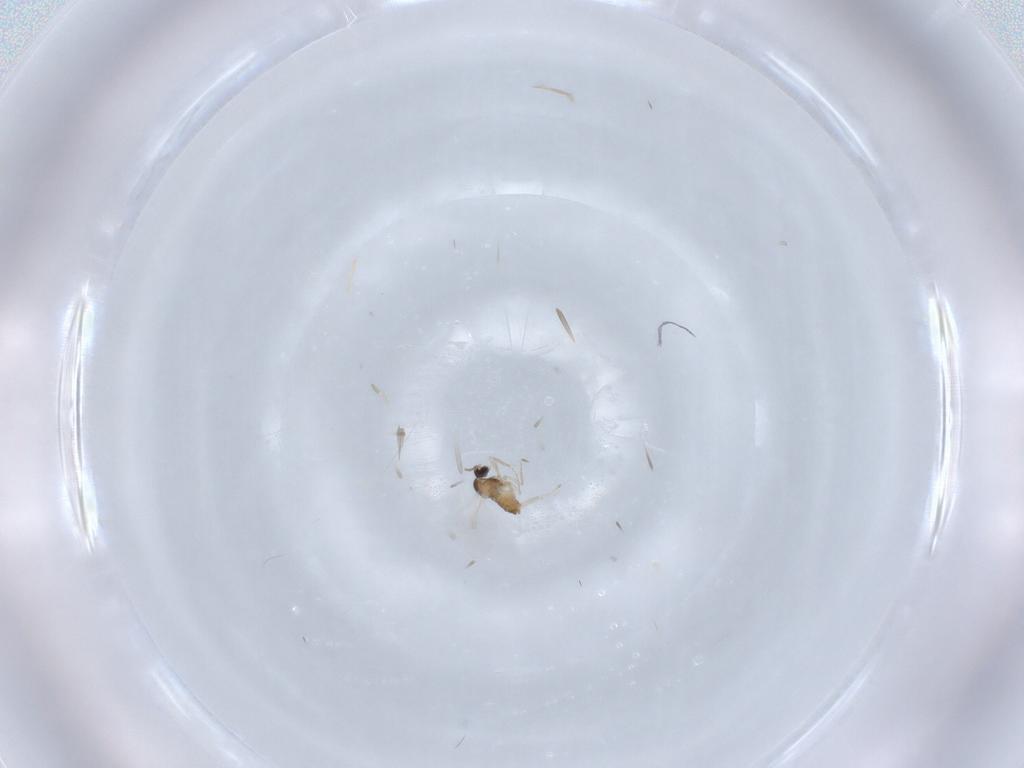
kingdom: Animalia
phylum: Arthropoda
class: Insecta
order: Diptera
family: Cecidomyiidae
